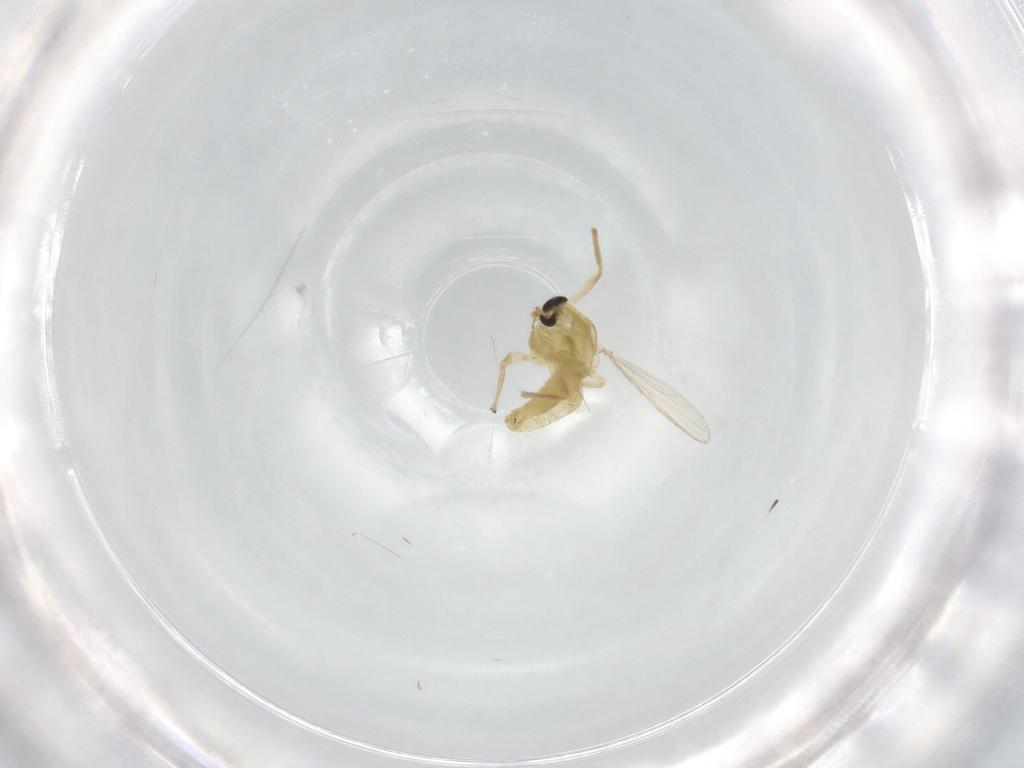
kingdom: Animalia
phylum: Arthropoda
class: Insecta
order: Diptera
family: Chironomidae
